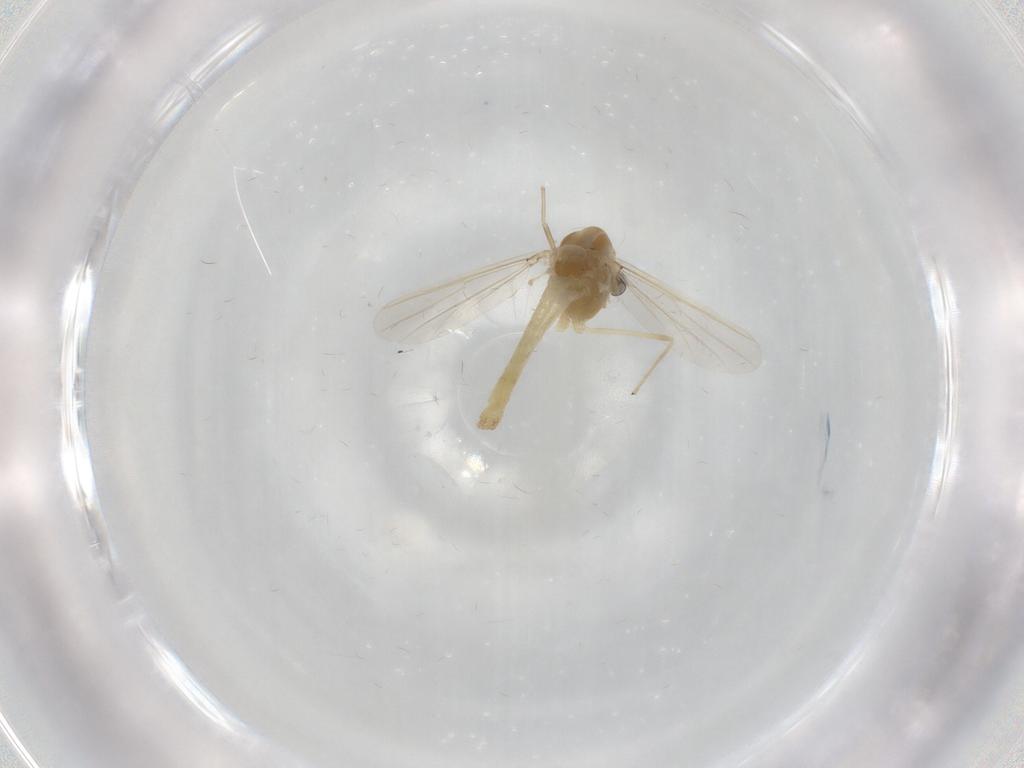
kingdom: Animalia
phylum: Arthropoda
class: Insecta
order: Diptera
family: Chironomidae
